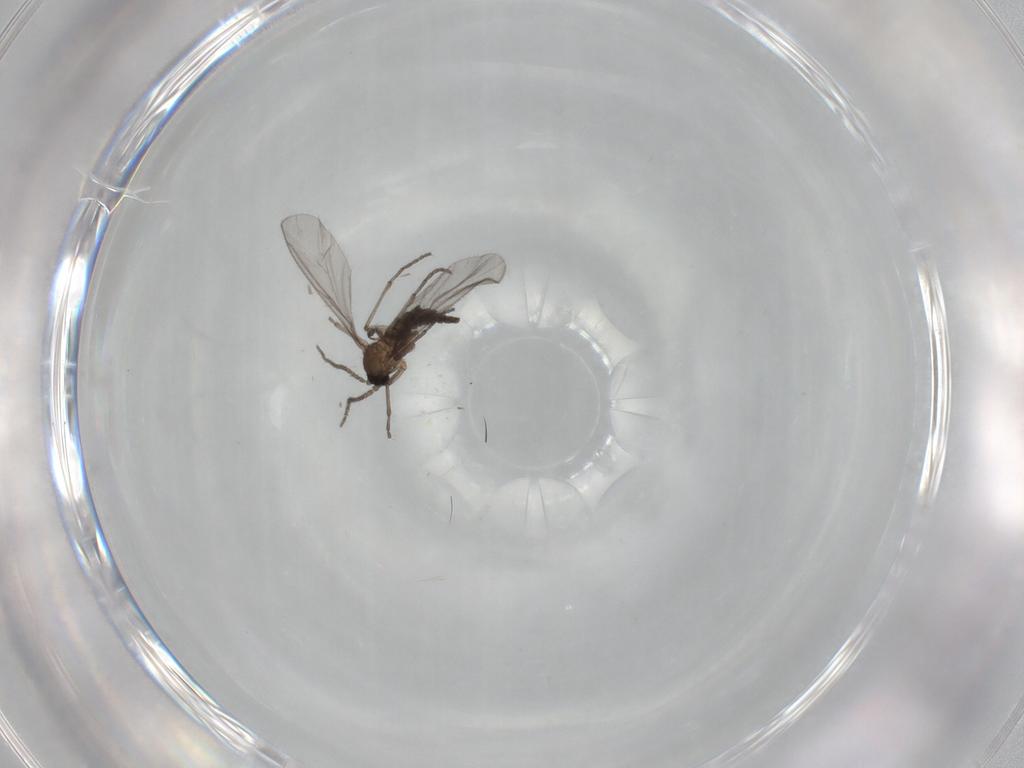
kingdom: Animalia
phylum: Arthropoda
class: Insecta
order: Diptera
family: Sciaridae
